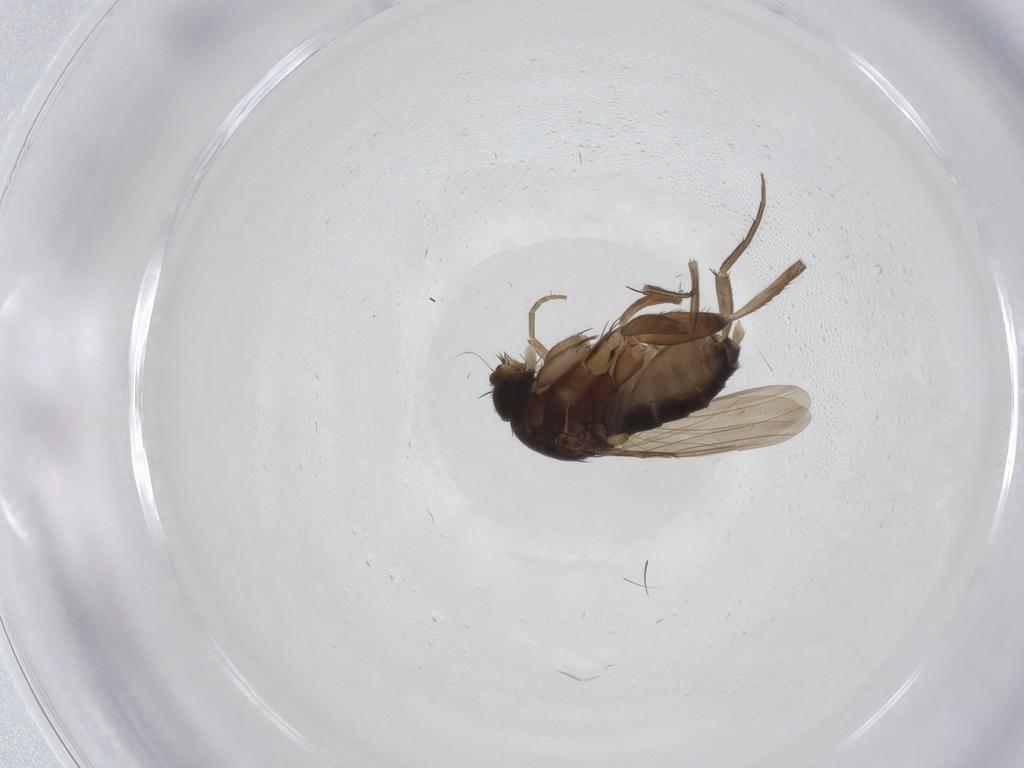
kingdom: Animalia
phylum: Arthropoda
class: Insecta
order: Diptera
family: Phoridae
